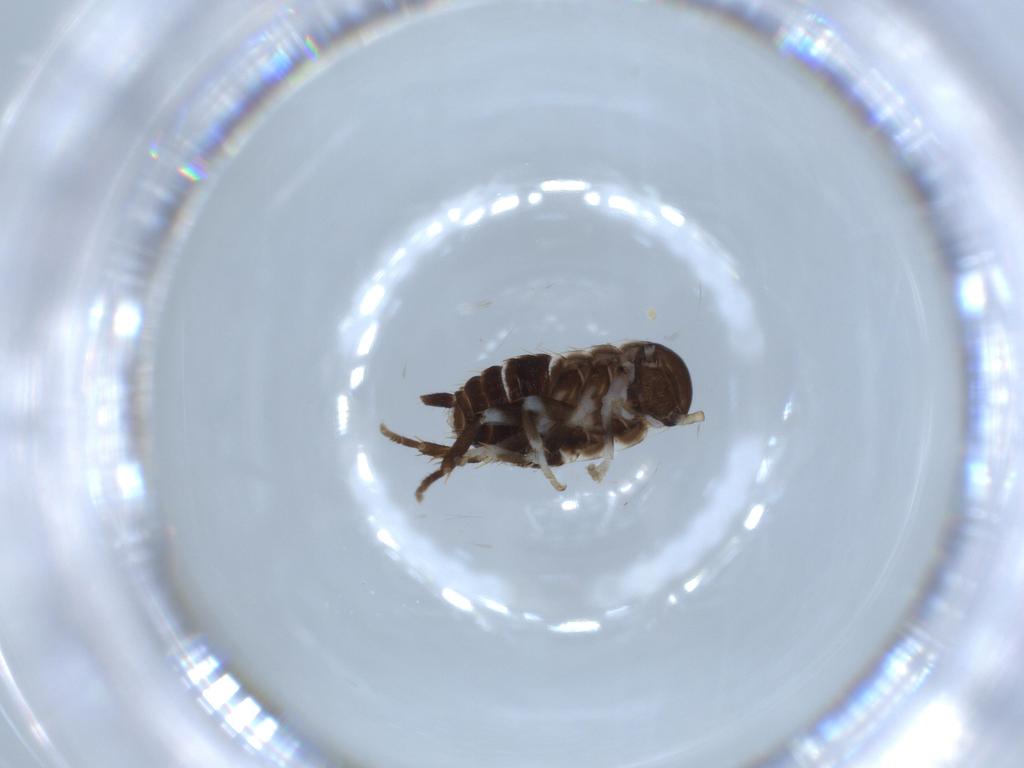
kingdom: Animalia
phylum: Arthropoda
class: Insecta
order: Blattodea
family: Ectobiidae
